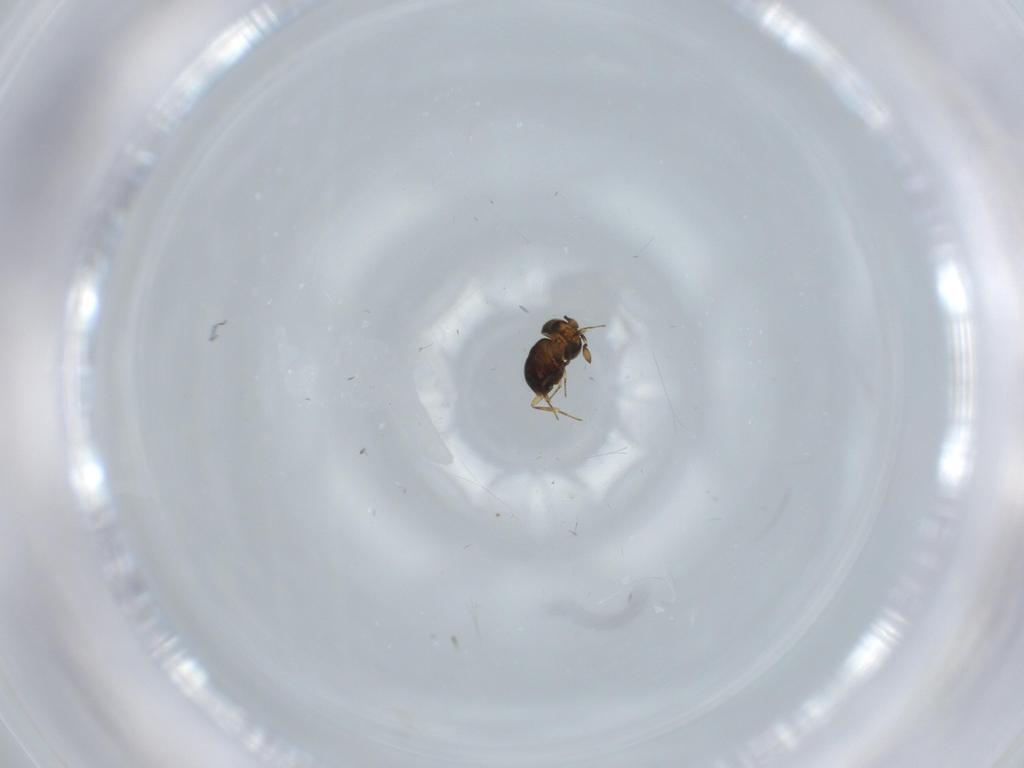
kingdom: Animalia
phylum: Arthropoda
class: Insecta
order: Hymenoptera
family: Scelionidae
